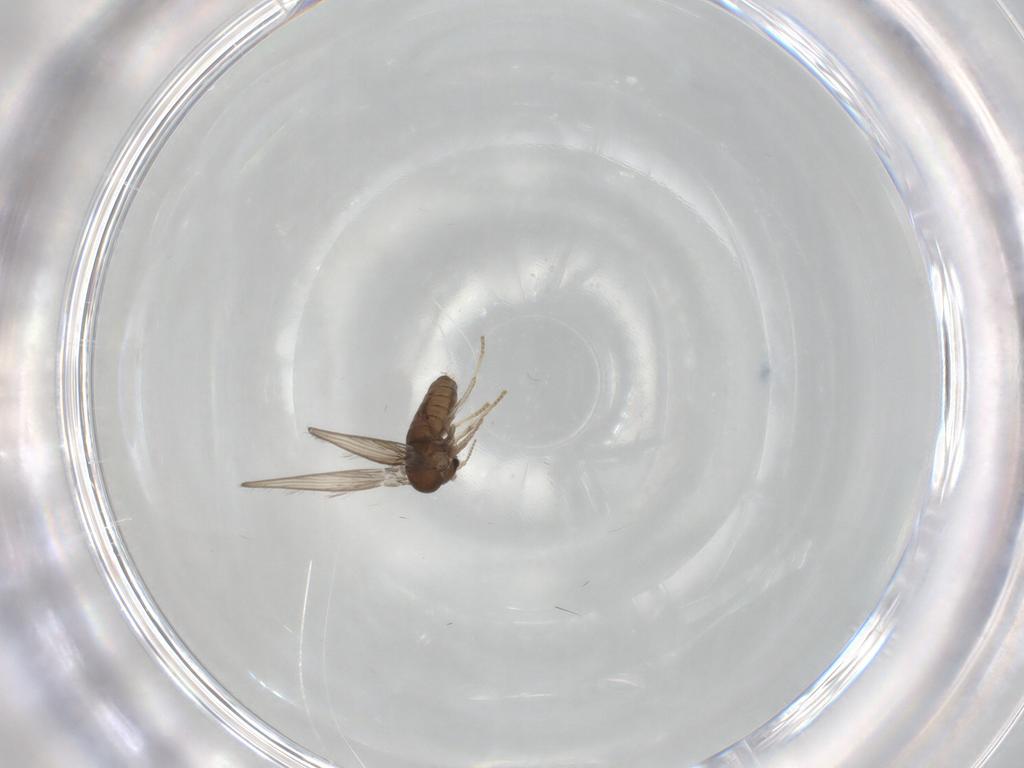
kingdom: Animalia
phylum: Arthropoda
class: Insecta
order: Diptera
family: Psychodidae
